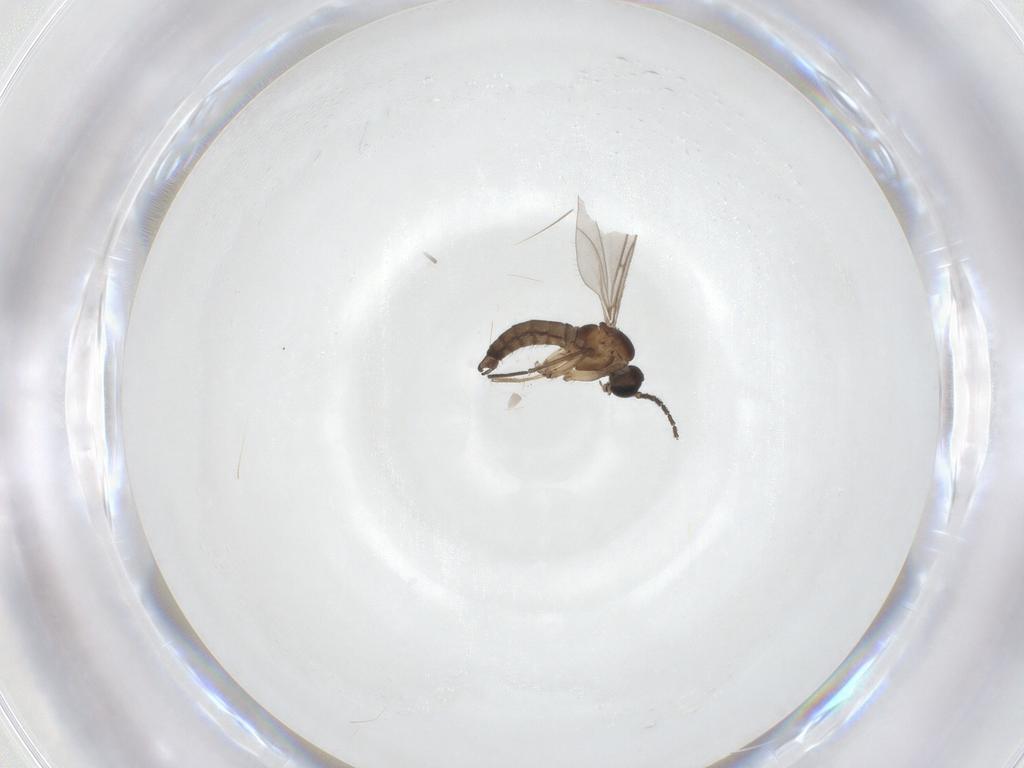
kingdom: Animalia
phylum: Arthropoda
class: Insecta
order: Diptera
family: Sciaridae
